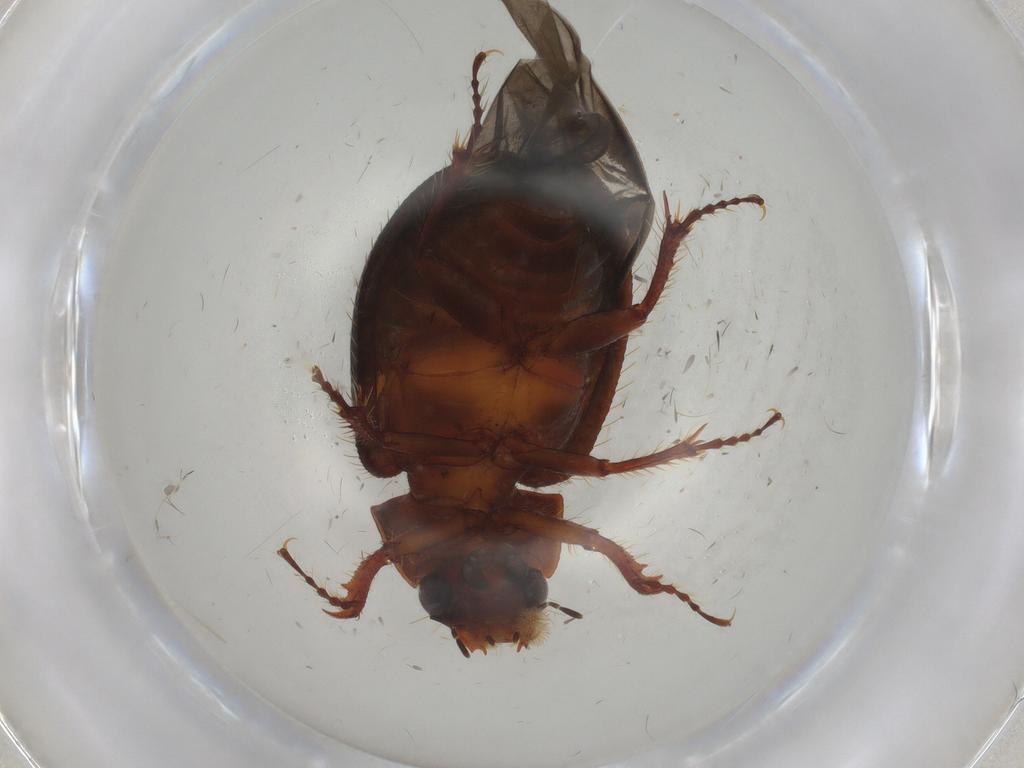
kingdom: Animalia
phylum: Arthropoda
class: Insecta
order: Coleoptera
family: Hybosoridae
